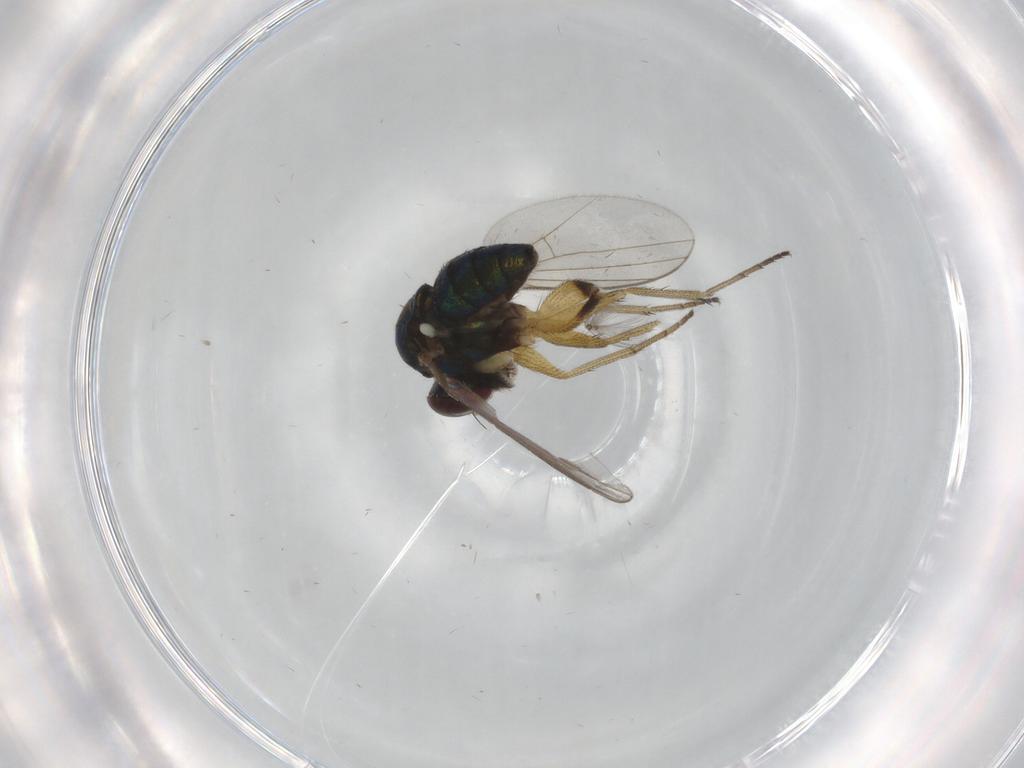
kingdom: Animalia
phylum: Arthropoda
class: Insecta
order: Diptera
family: Dolichopodidae
